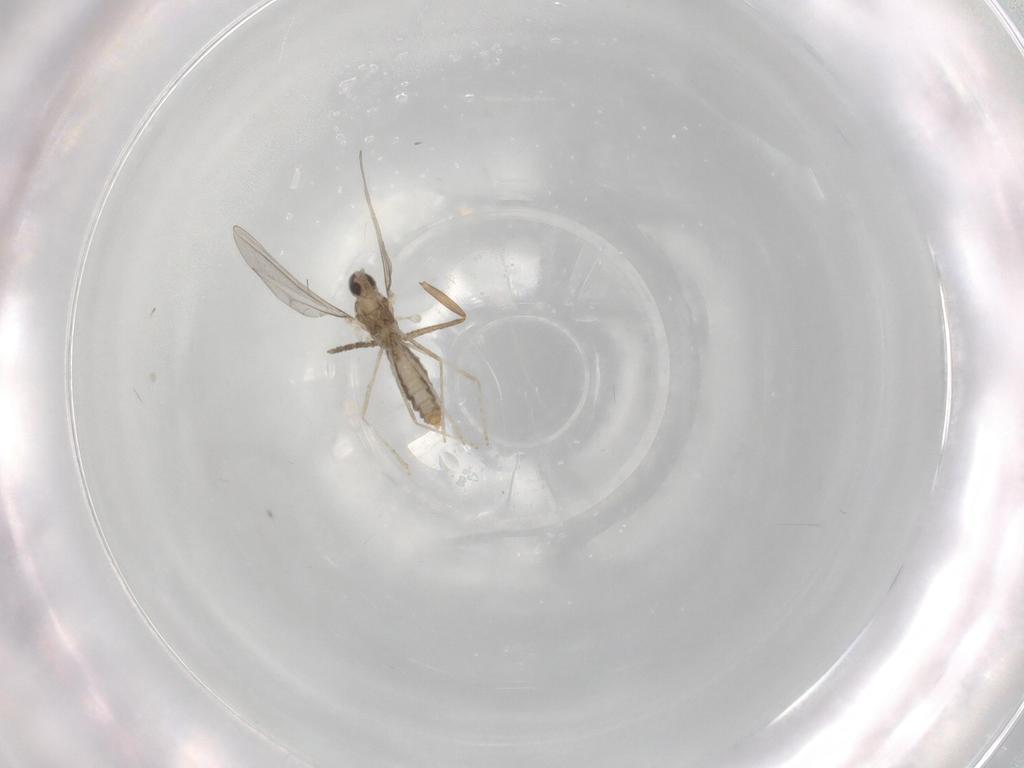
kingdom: Animalia
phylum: Arthropoda
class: Insecta
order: Diptera
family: Cecidomyiidae
